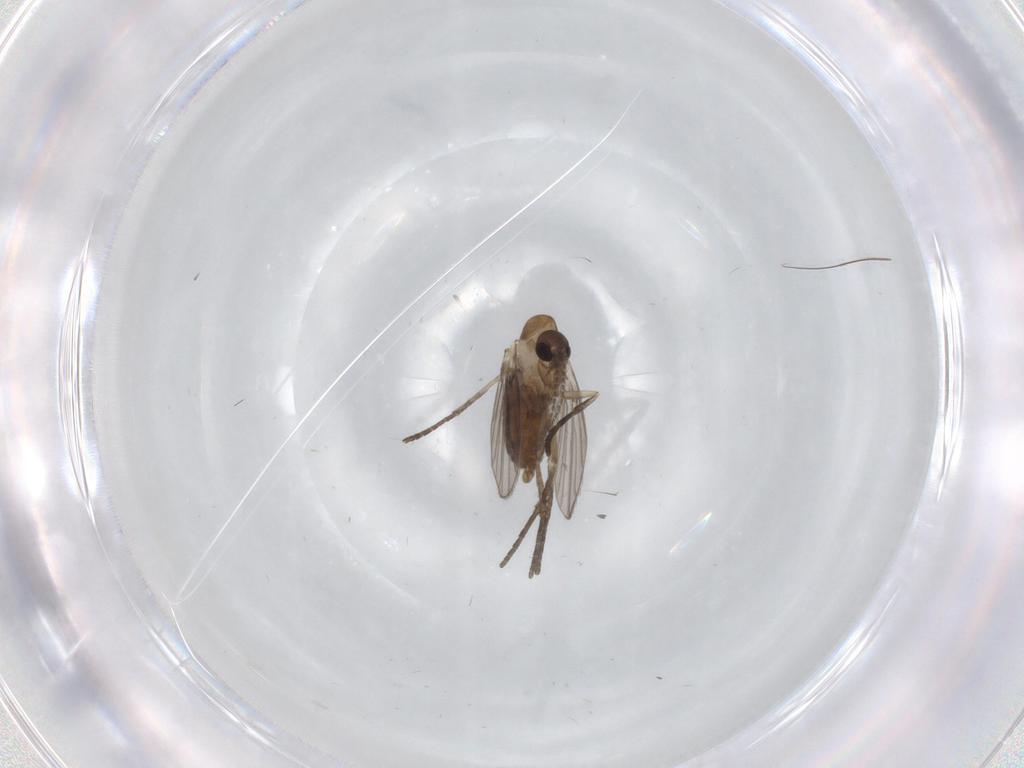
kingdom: Animalia
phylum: Arthropoda
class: Insecta
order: Diptera
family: Psychodidae
